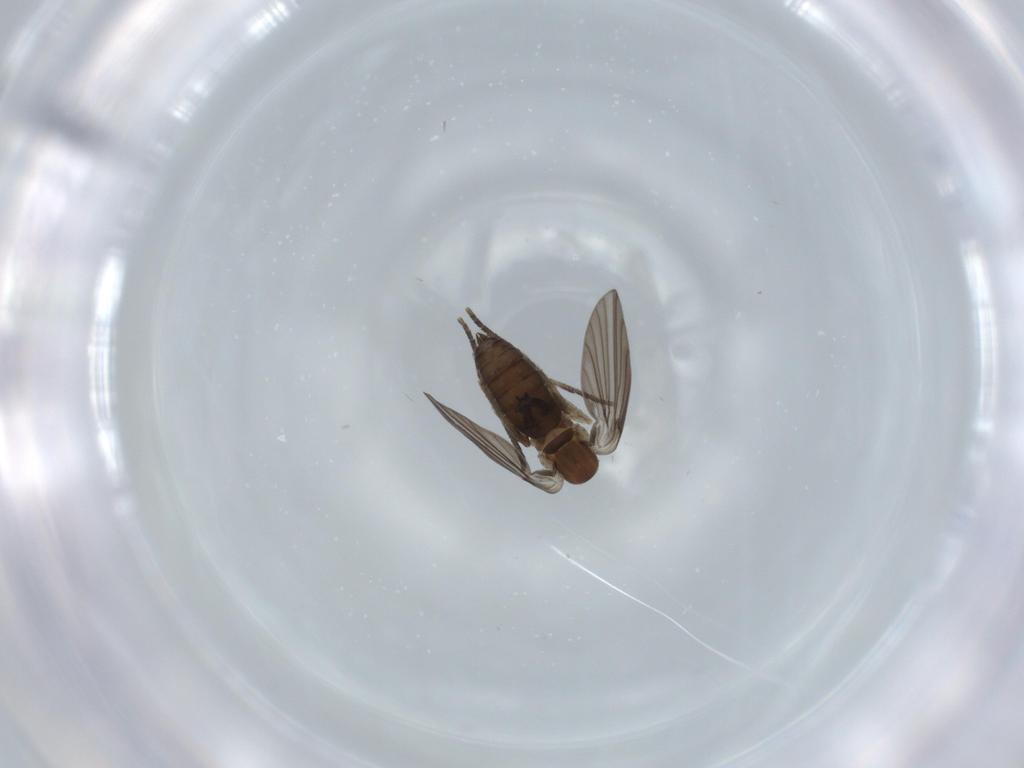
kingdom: Animalia
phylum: Arthropoda
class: Insecta
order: Diptera
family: Psychodidae
